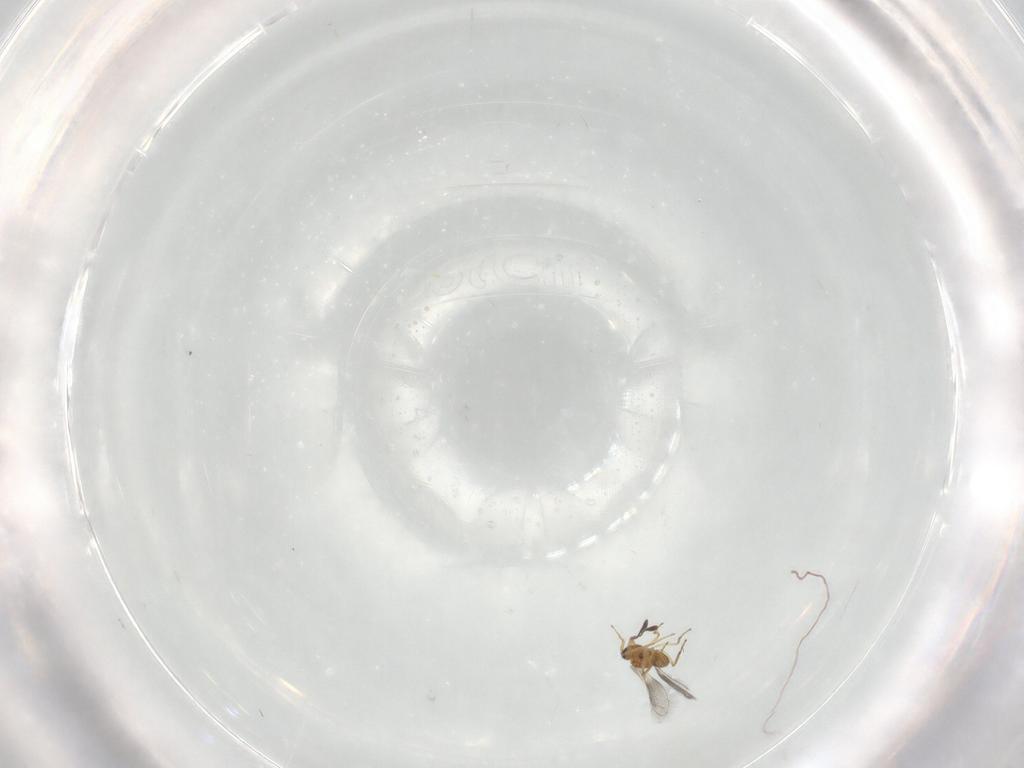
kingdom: Animalia
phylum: Arthropoda
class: Insecta
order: Hymenoptera
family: Mymaridae
